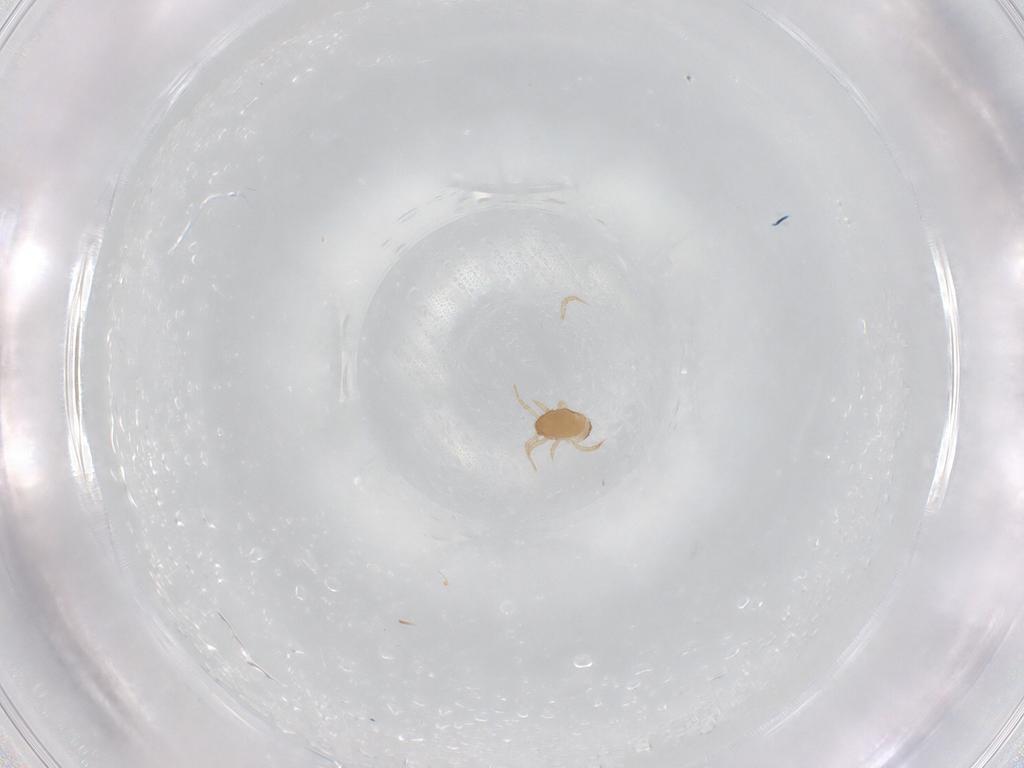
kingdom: Animalia
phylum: Arthropoda
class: Arachnida
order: Mesostigmata
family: Blattisociidae
